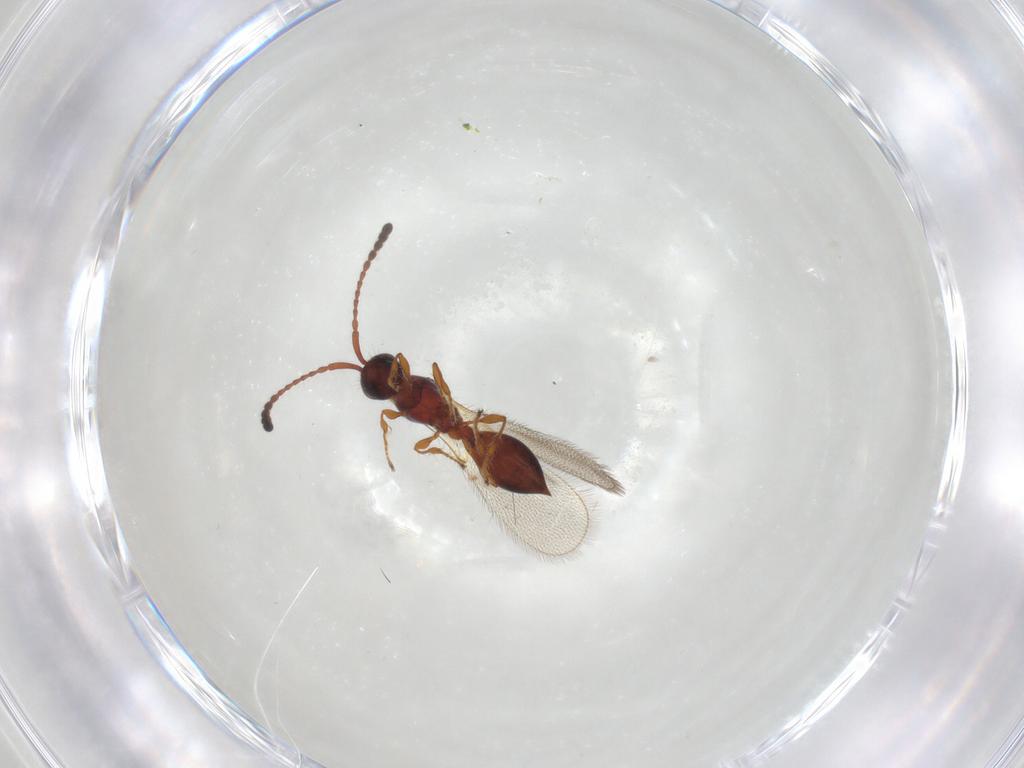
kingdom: Animalia
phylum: Arthropoda
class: Insecta
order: Hymenoptera
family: Diapriidae
